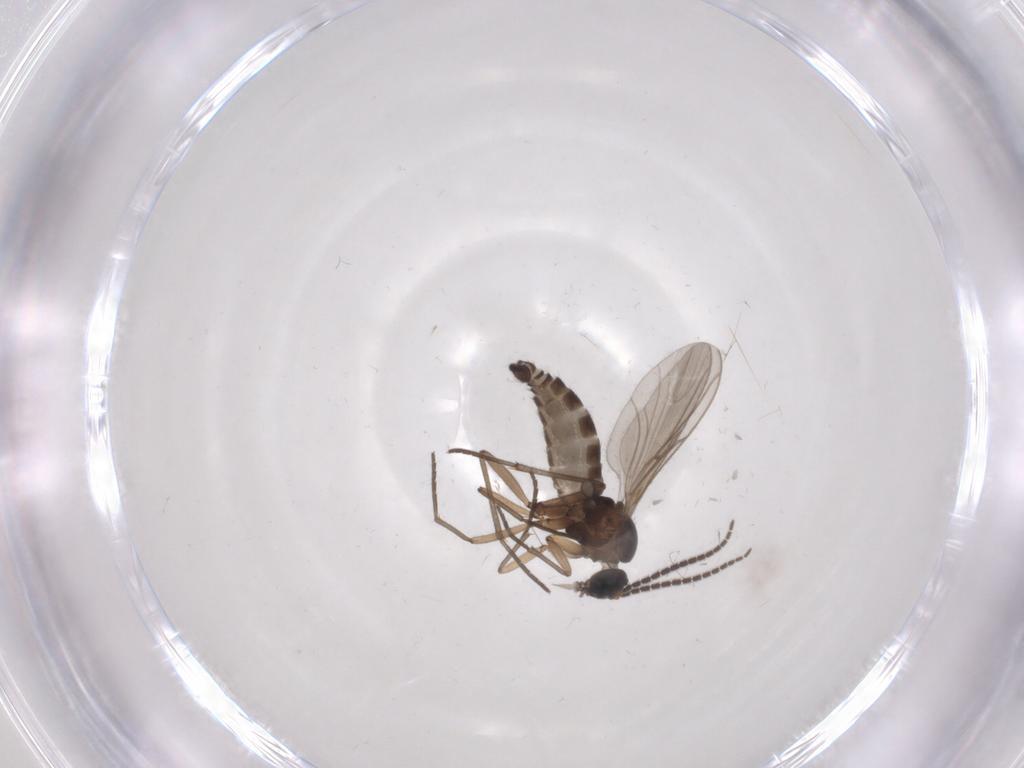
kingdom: Animalia
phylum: Arthropoda
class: Insecta
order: Diptera
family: Sciaridae
